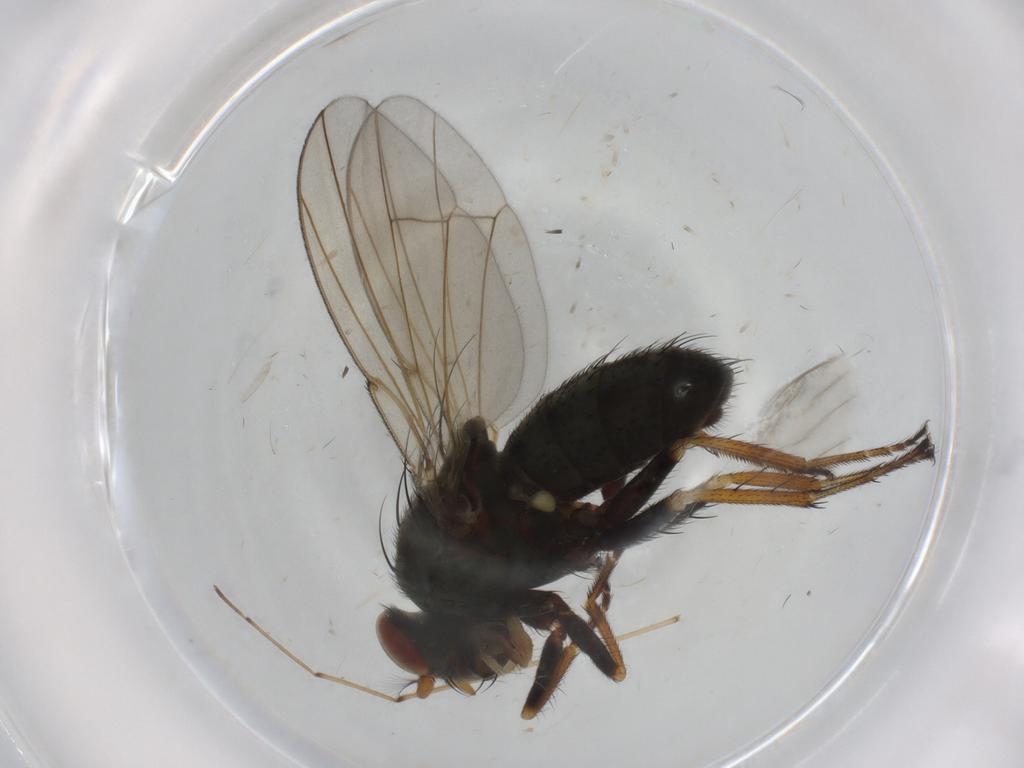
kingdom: Animalia
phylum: Arthropoda
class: Insecta
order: Diptera
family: Ephydridae
